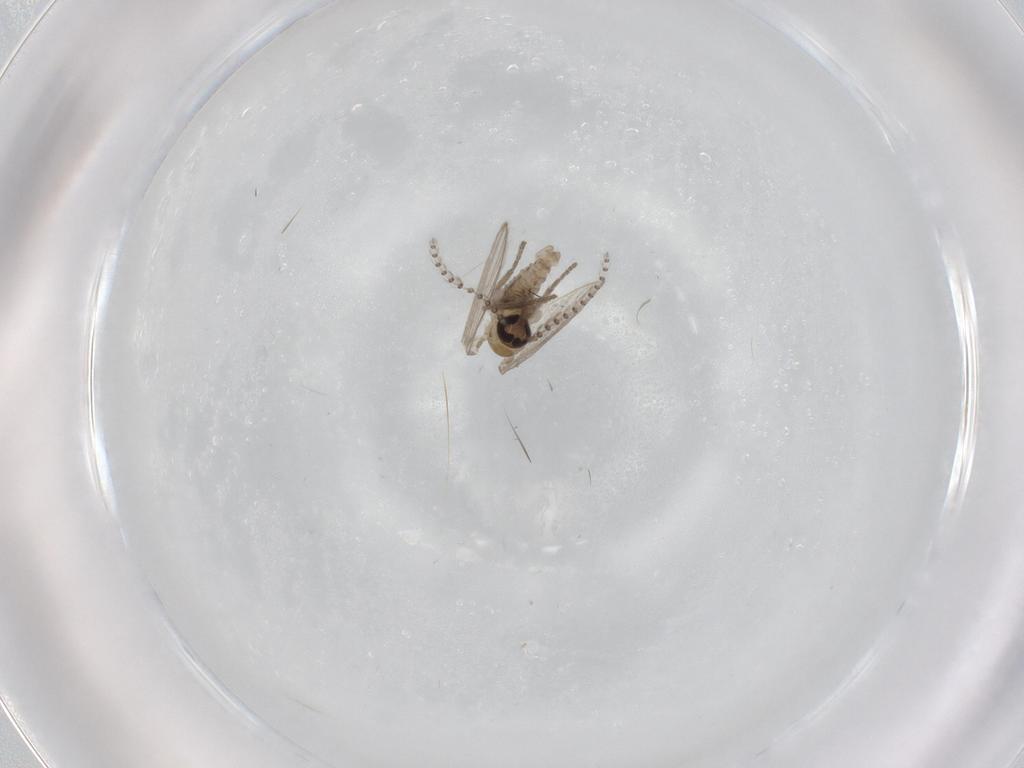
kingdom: Animalia
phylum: Arthropoda
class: Insecta
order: Diptera
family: Psychodidae
